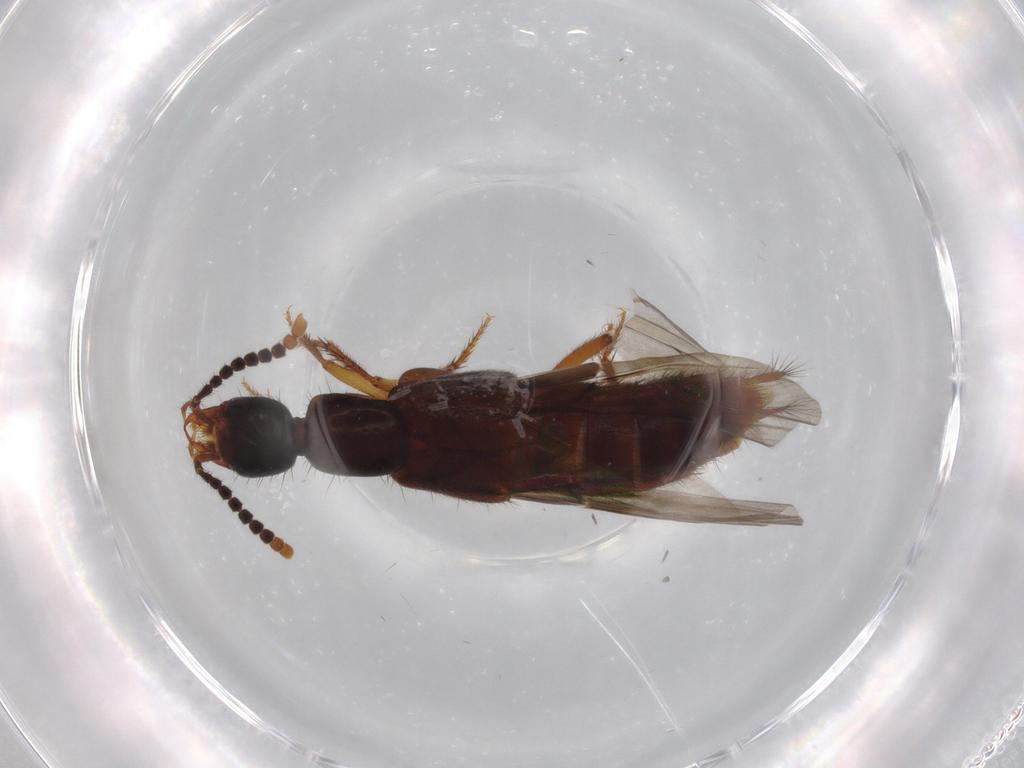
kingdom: Animalia
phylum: Arthropoda
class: Insecta
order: Coleoptera
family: Staphylinidae
